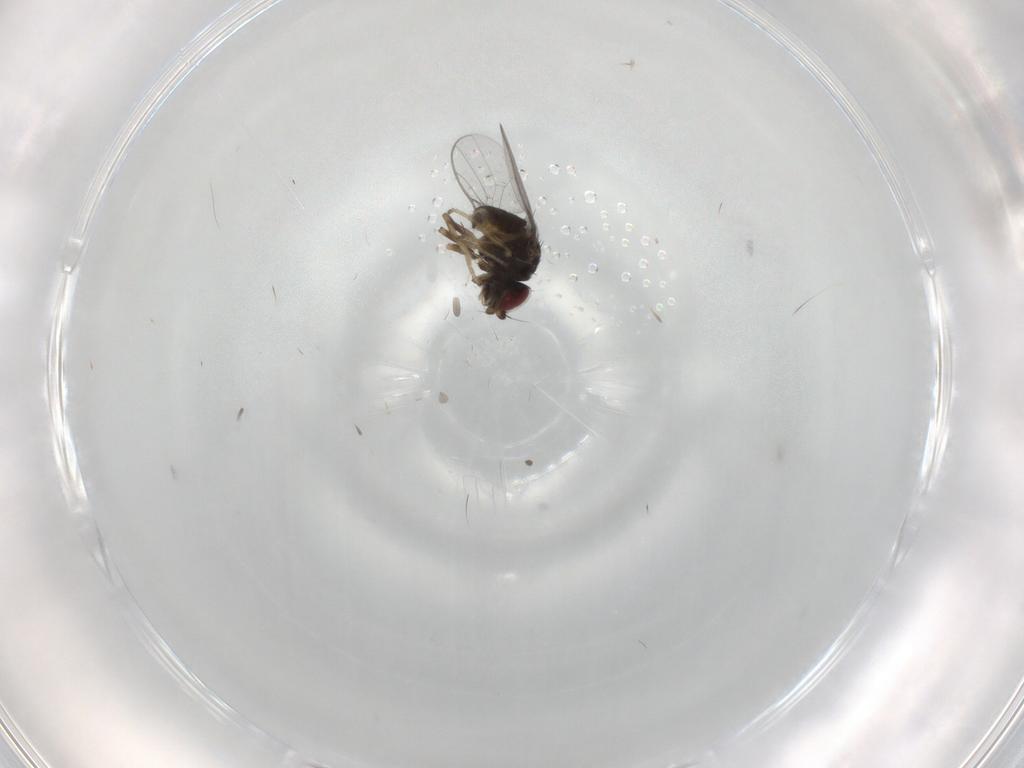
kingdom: Animalia
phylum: Arthropoda
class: Insecta
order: Diptera
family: Chloropidae
